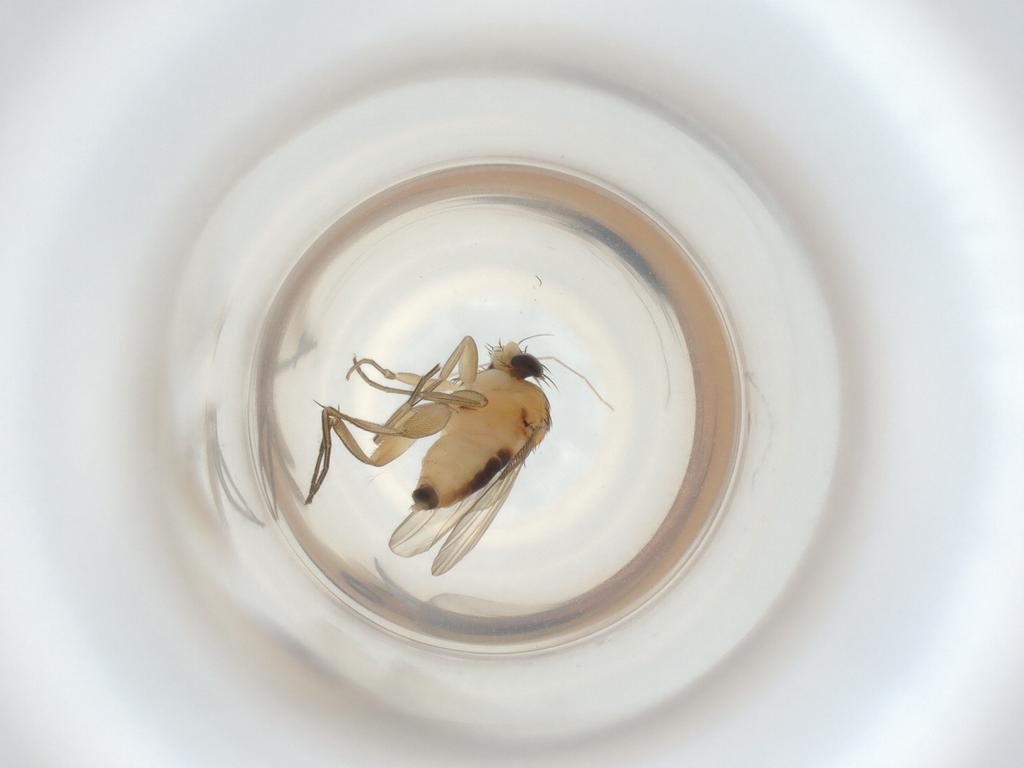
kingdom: Animalia
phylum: Arthropoda
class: Insecta
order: Diptera
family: Phoridae
